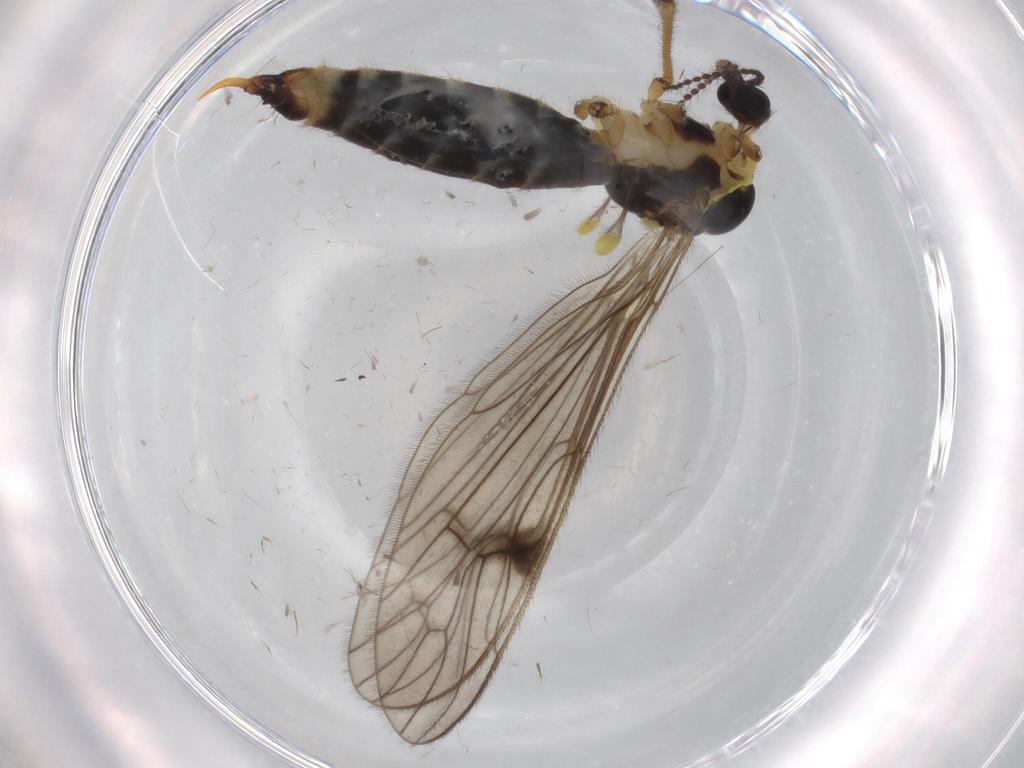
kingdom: Animalia
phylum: Arthropoda
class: Insecta
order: Diptera
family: Limoniidae
